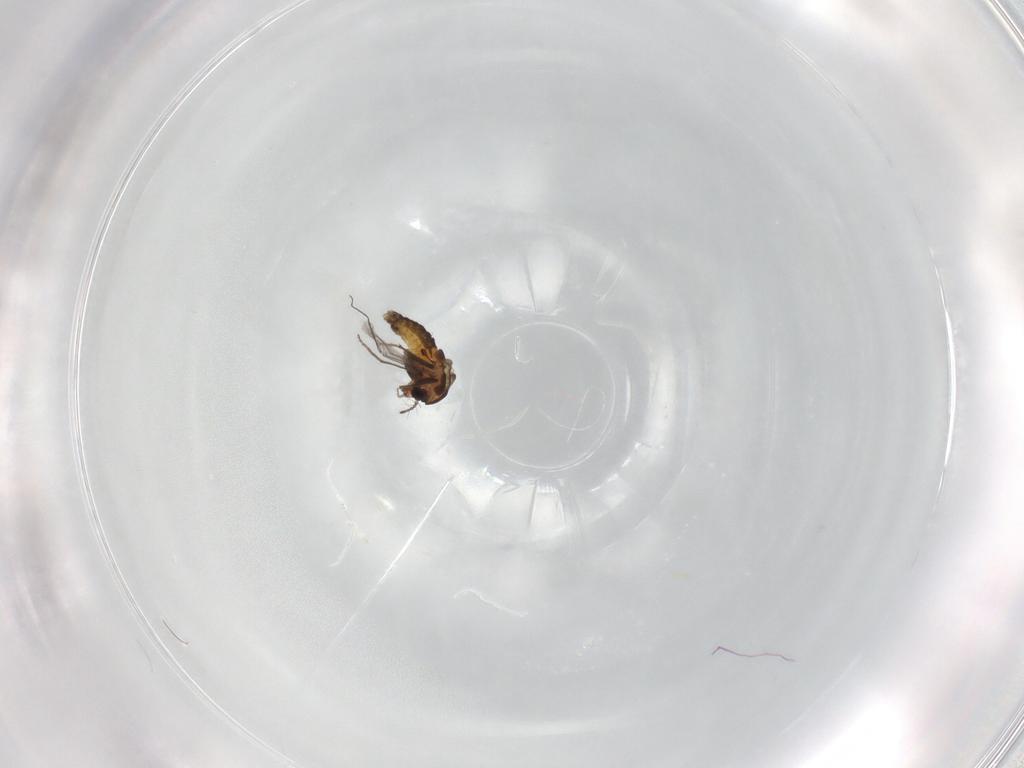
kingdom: Animalia
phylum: Arthropoda
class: Insecta
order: Diptera
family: Chironomidae
